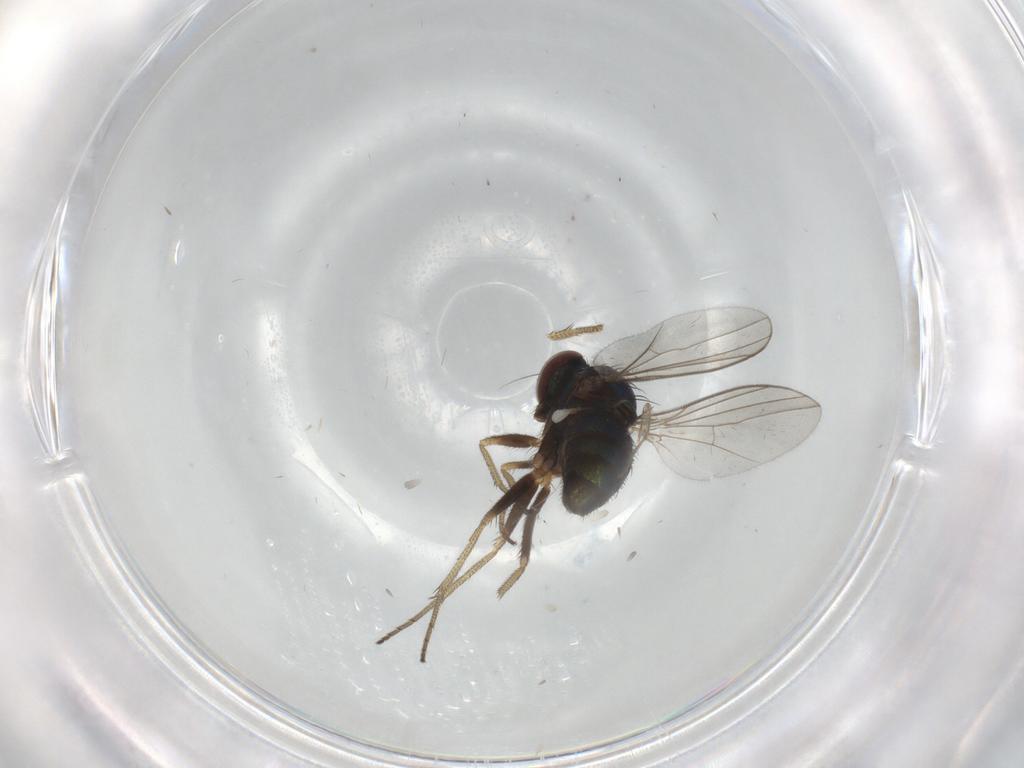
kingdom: Animalia
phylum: Arthropoda
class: Insecta
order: Diptera
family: Dolichopodidae
